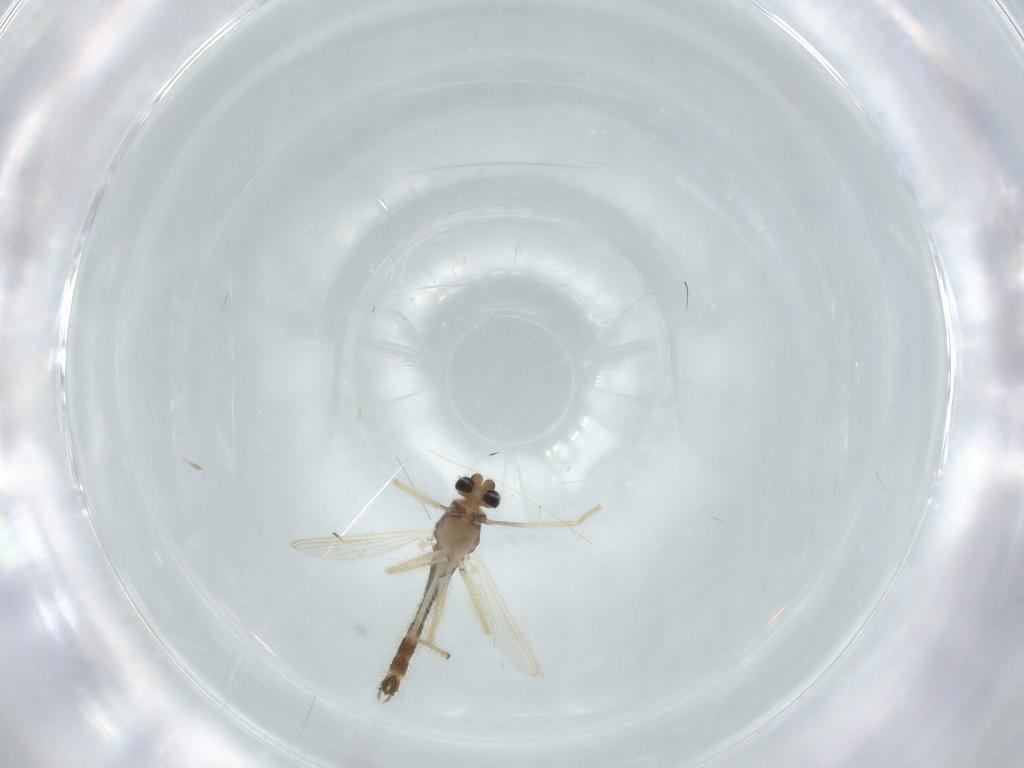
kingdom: Animalia
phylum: Arthropoda
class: Insecta
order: Diptera
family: Chironomidae
